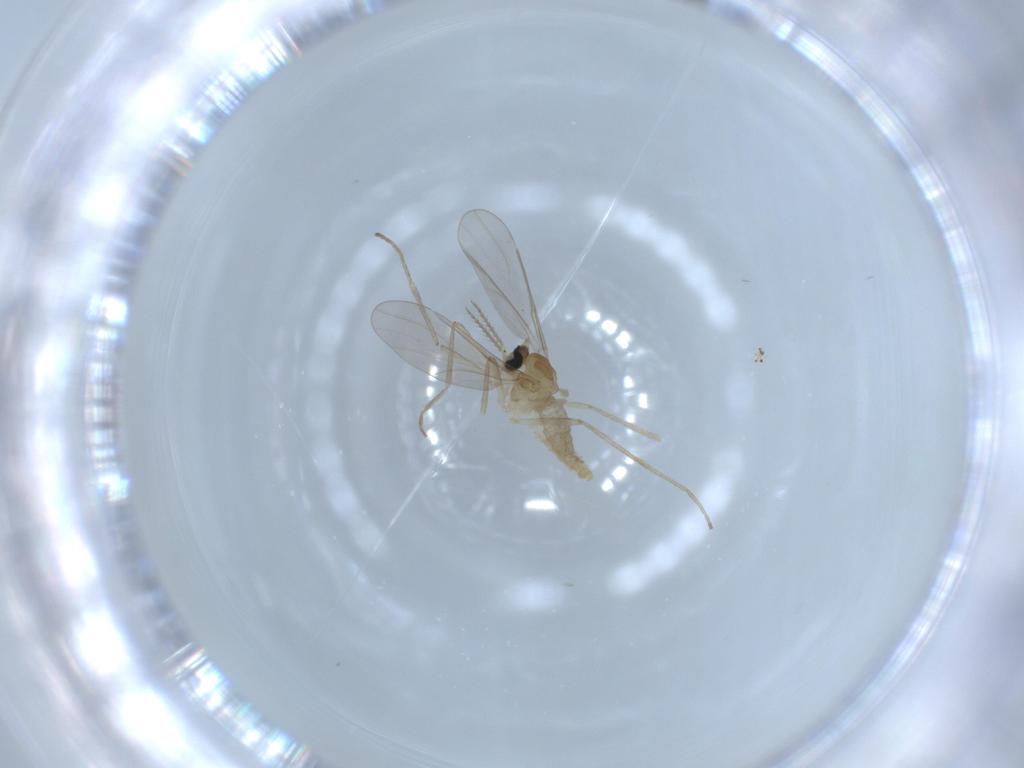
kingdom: Animalia
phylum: Arthropoda
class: Insecta
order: Diptera
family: Cecidomyiidae
